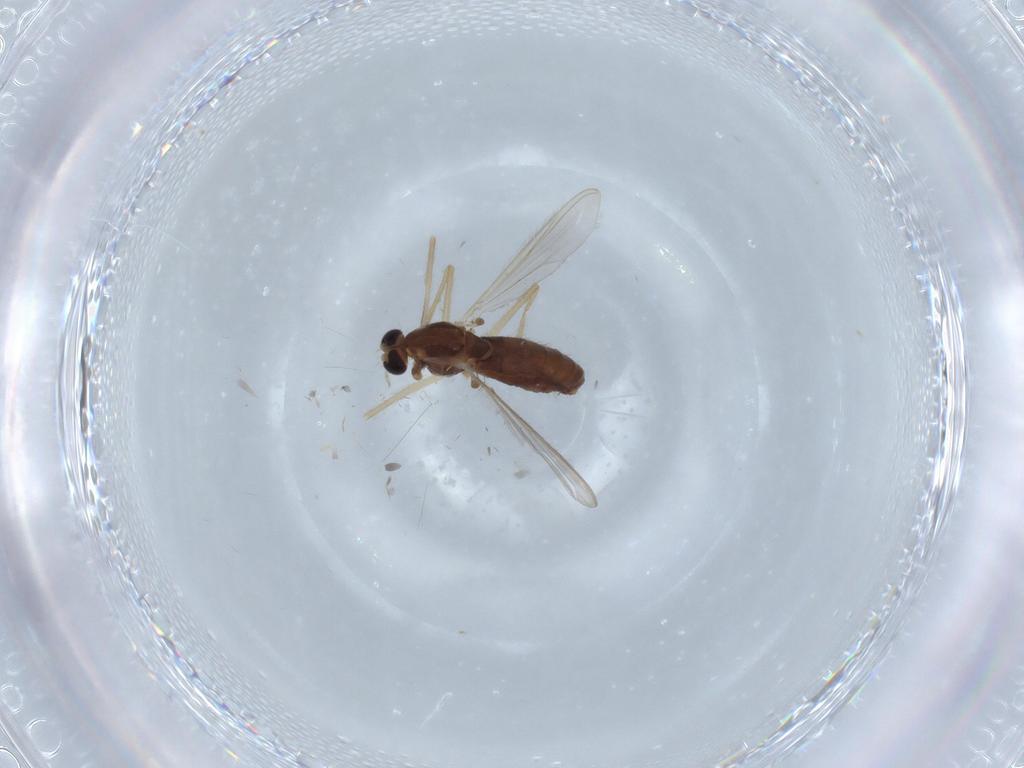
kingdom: Animalia
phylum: Arthropoda
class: Insecta
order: Diptera
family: Chironomidae
